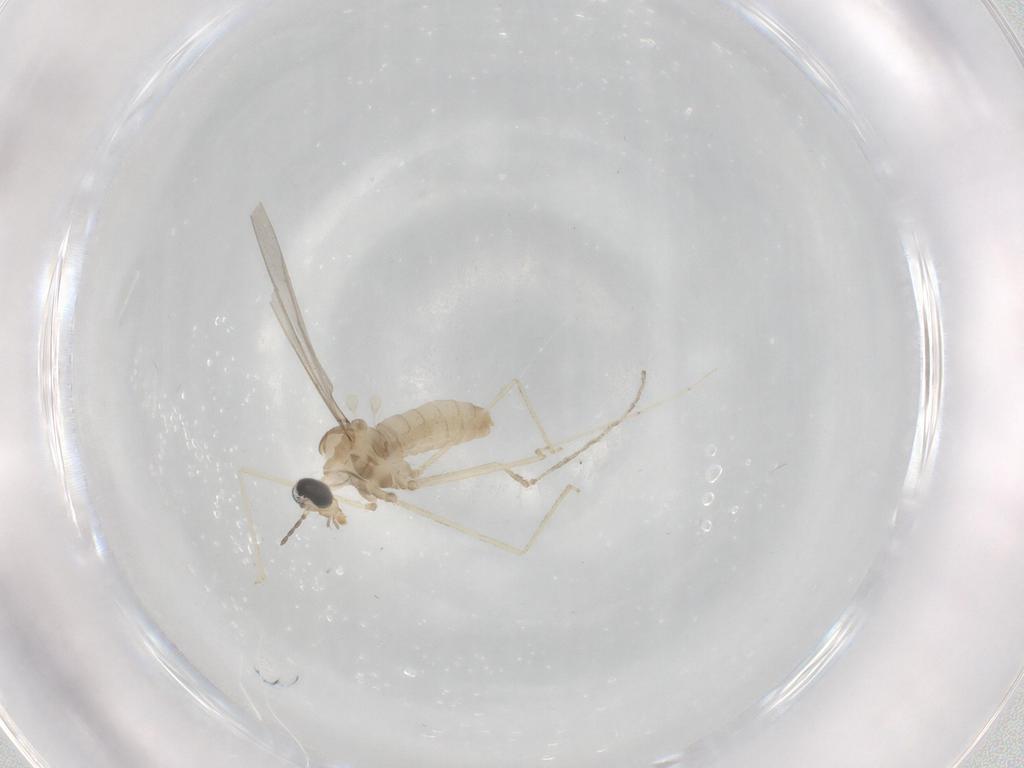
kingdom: Animalia
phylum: Arthropoda
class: Insecta
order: Diptera
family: Cecidomyiidae
